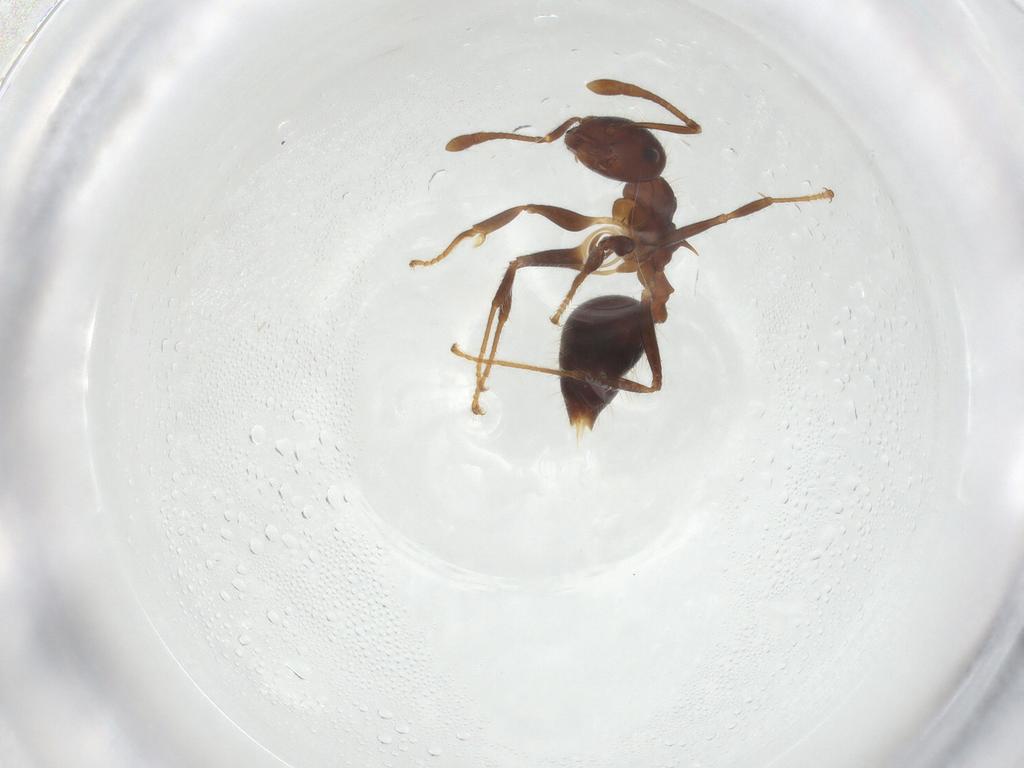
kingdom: Animalia
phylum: Arthropoda
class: Insecta
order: Hymenoptera
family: Formicidae
